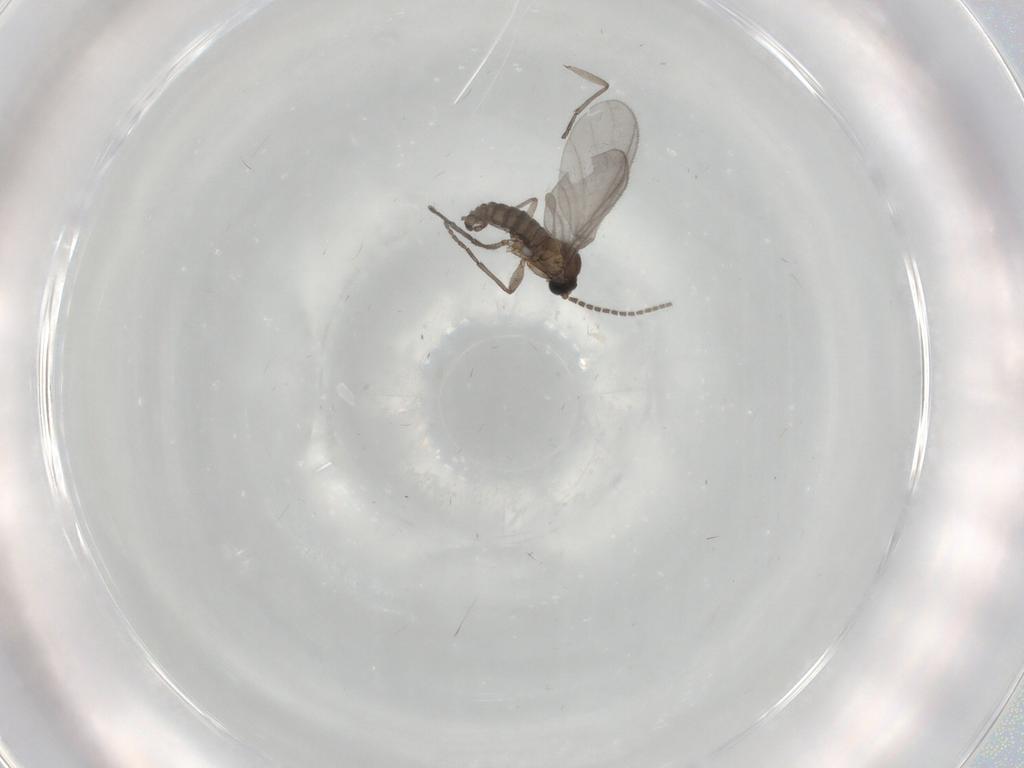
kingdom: Animalia
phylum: Arthropoda
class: Insecta
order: Diptera
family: Sciaridae
